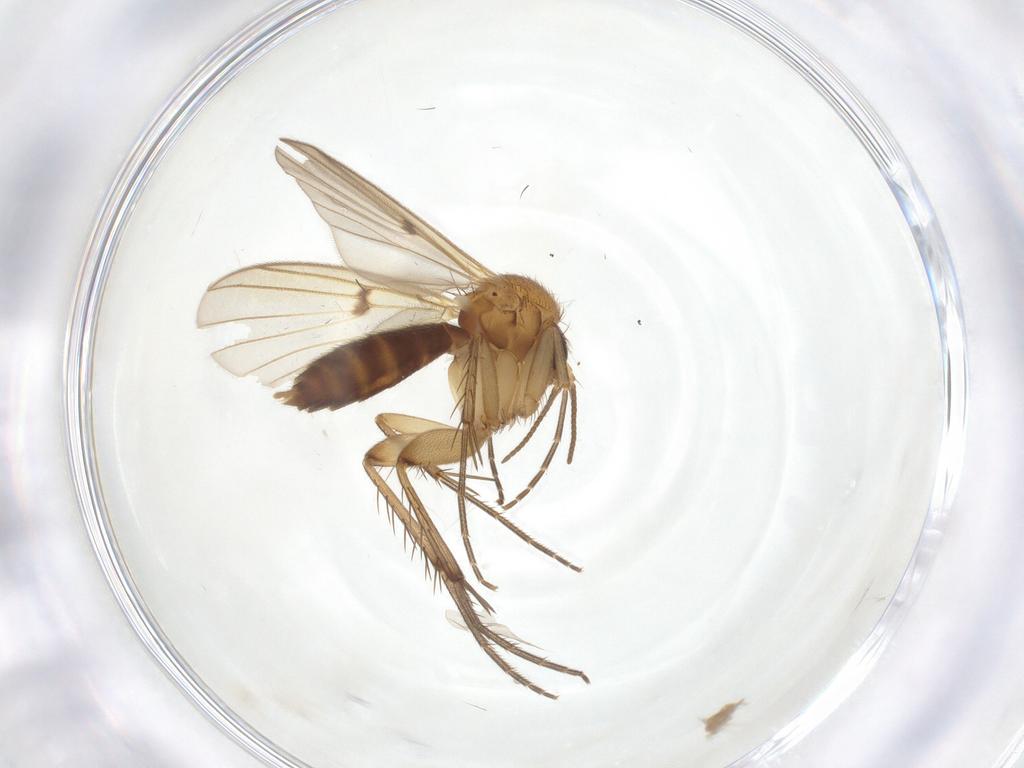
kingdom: Animalia
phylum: Arthropoda
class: Insecta
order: Diptera
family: Mycetophilidae
